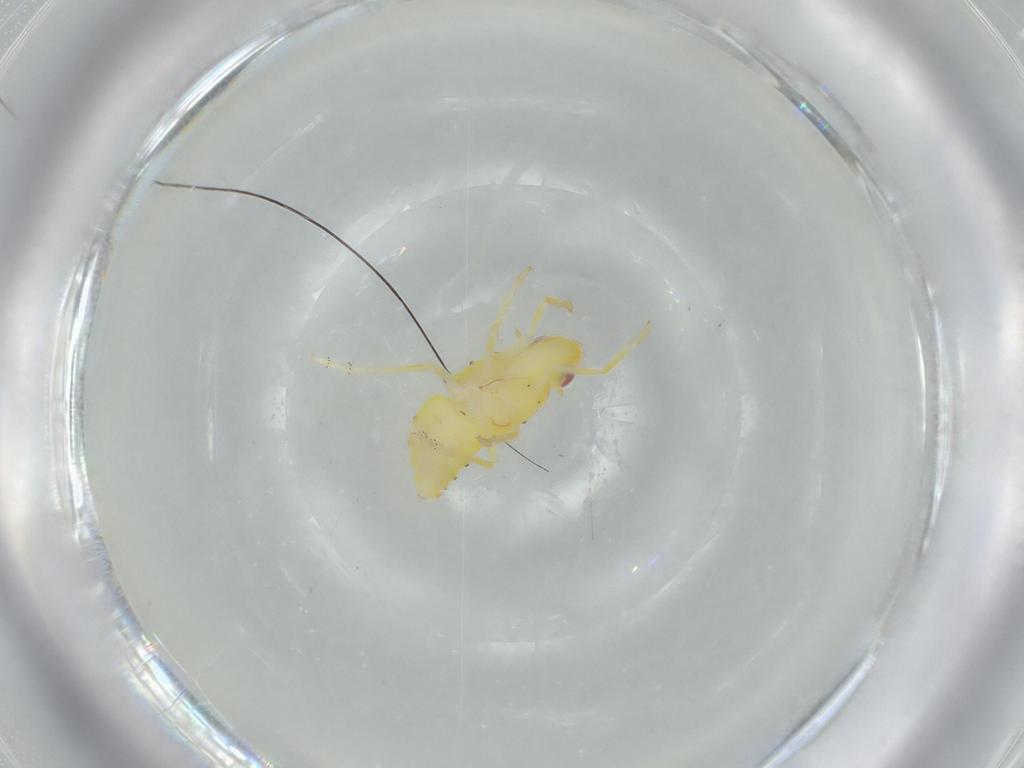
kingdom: Animalia
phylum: Arthropoda
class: Insecta
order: Hemiptera
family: Tropiduchidae
